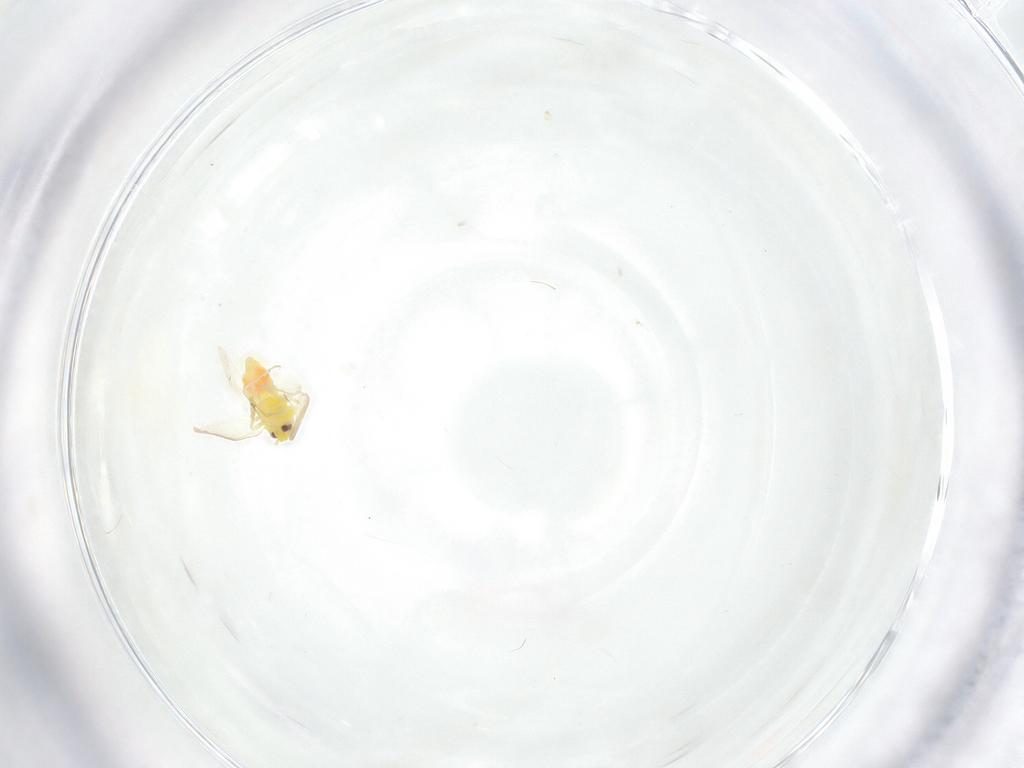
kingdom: Animalia
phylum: Arthropoda
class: Insecta
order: Hemiptera
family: Aleyrodidae
